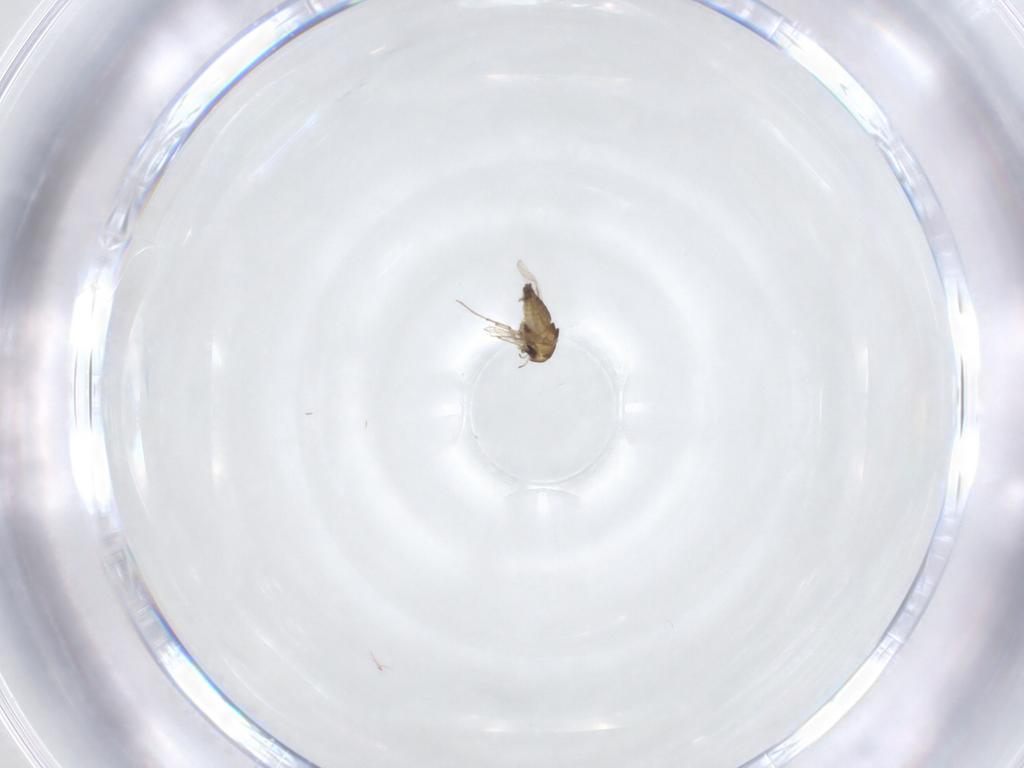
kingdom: Animalia
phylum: Arthropoda
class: Insecta
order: Diptera
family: Chironomidae
